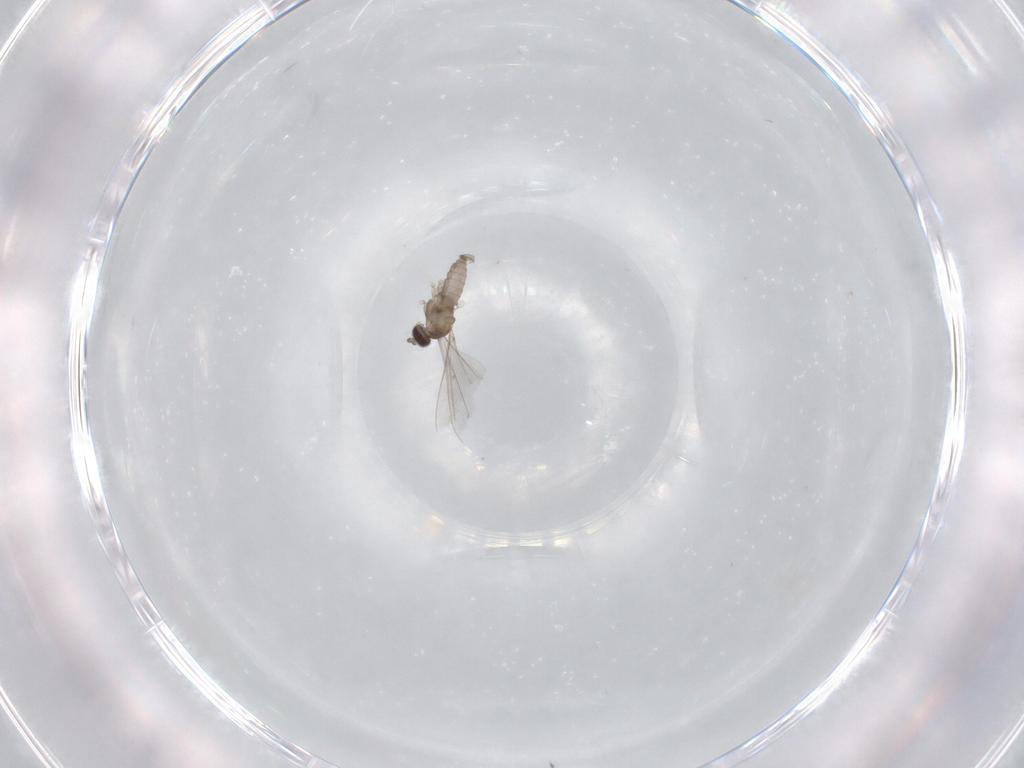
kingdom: Animalia
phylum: Arthropoda
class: Insecta
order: Diptera
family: Cecidomyiidae
